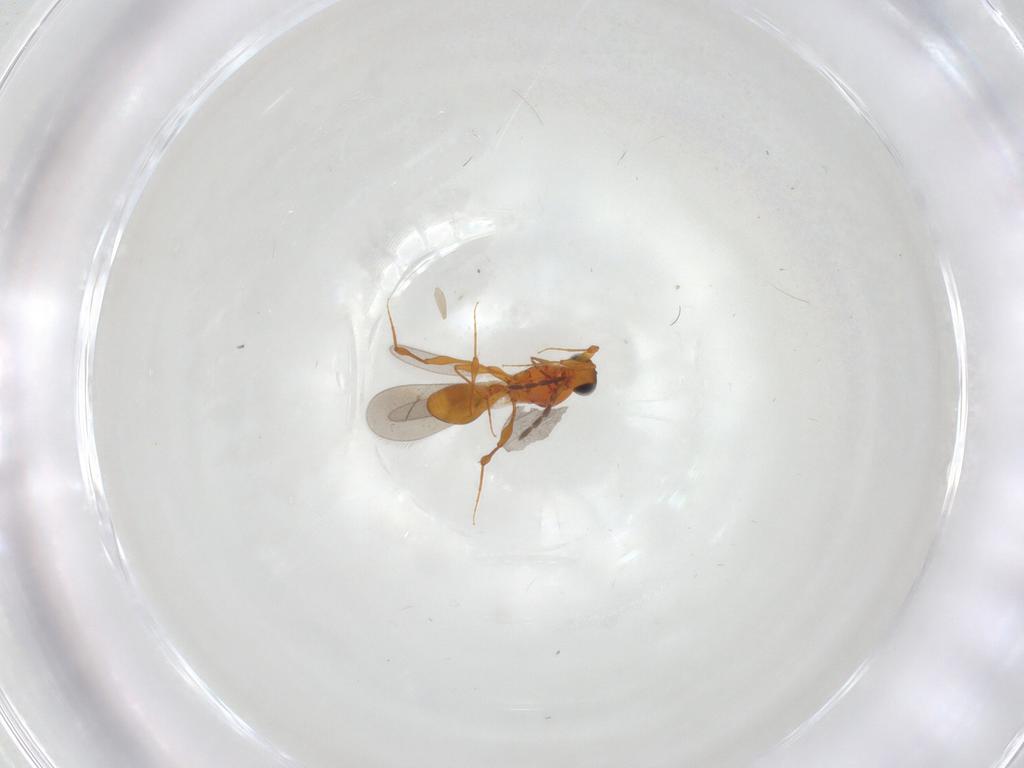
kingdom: Animalia
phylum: Arthropoda
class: Insecta
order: Hymenoptera
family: Platygastridae
